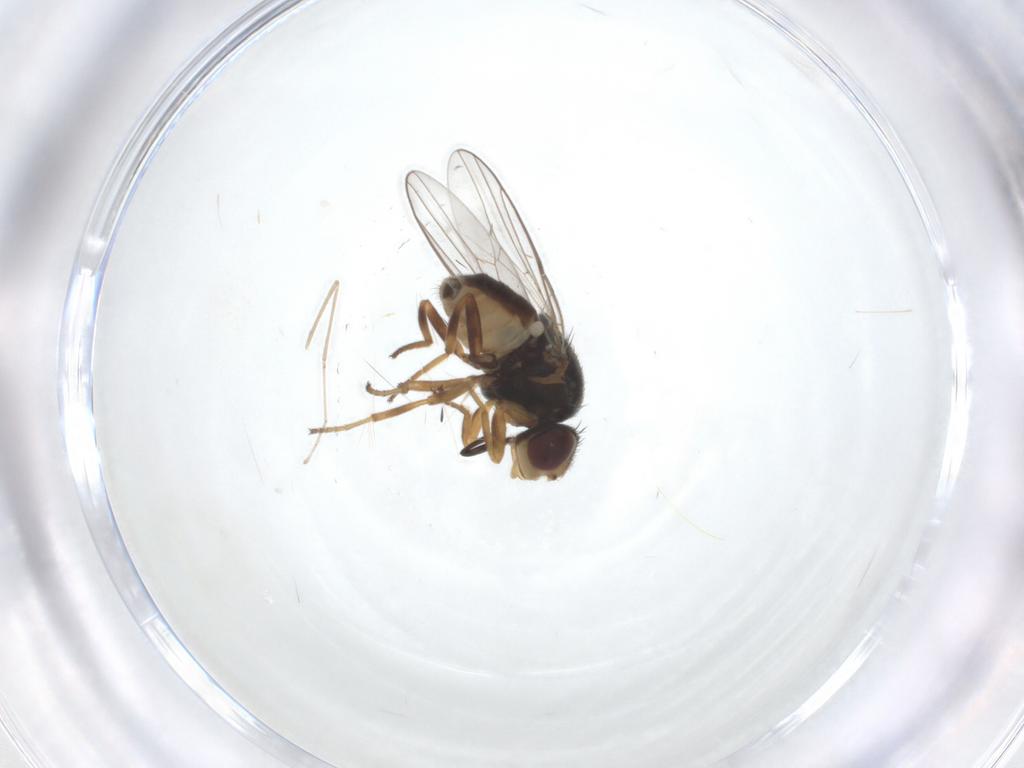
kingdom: Animalia
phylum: Arthropoda
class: Insecta
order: Diptera
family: Chloropidae
